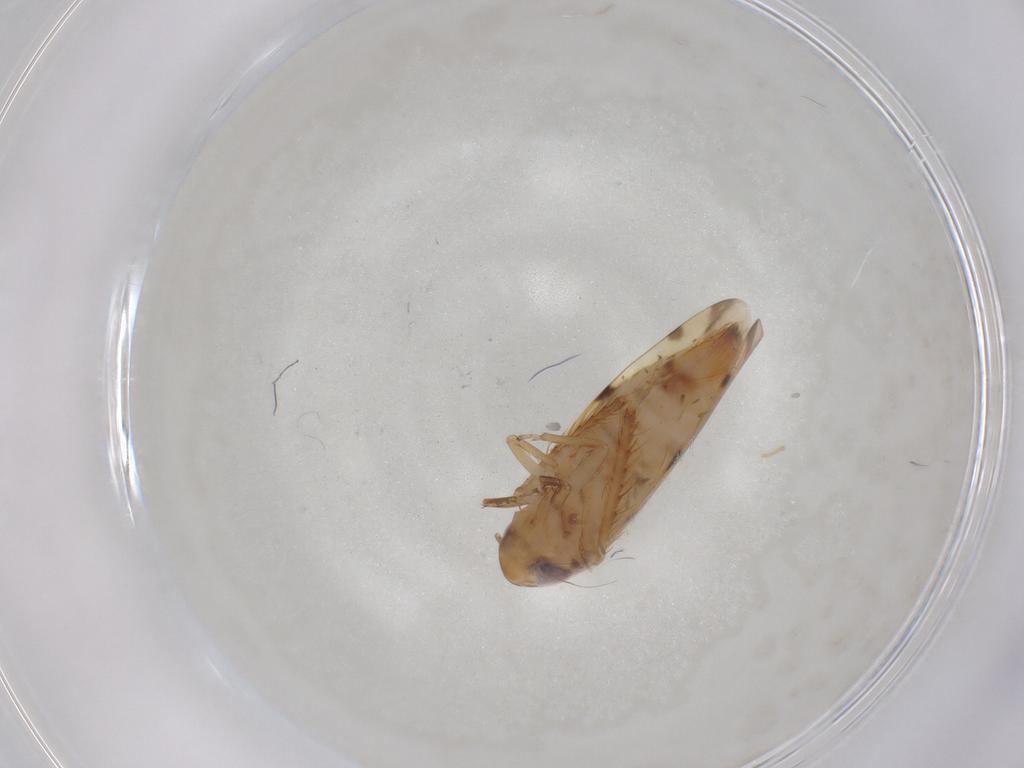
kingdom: Animalia
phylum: Arthropoda
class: Insecta
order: Hemiptera
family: Cicadellidae
